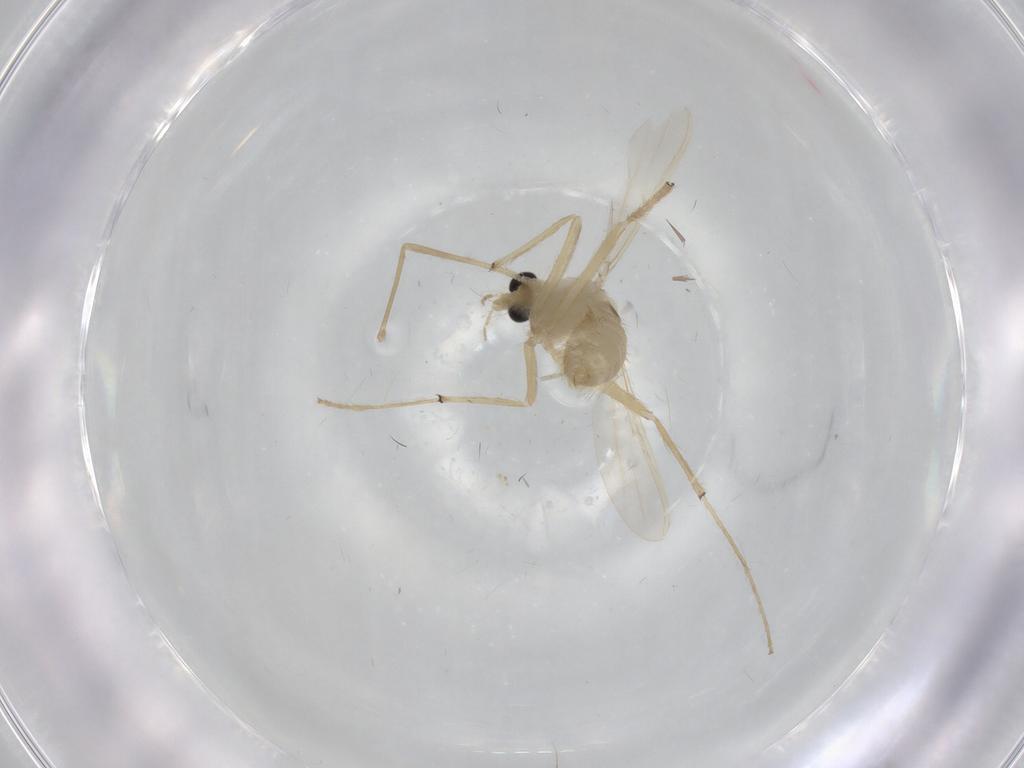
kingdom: Animalia
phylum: Arthropoda
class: Insecta
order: Diptera
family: Chironomidae
